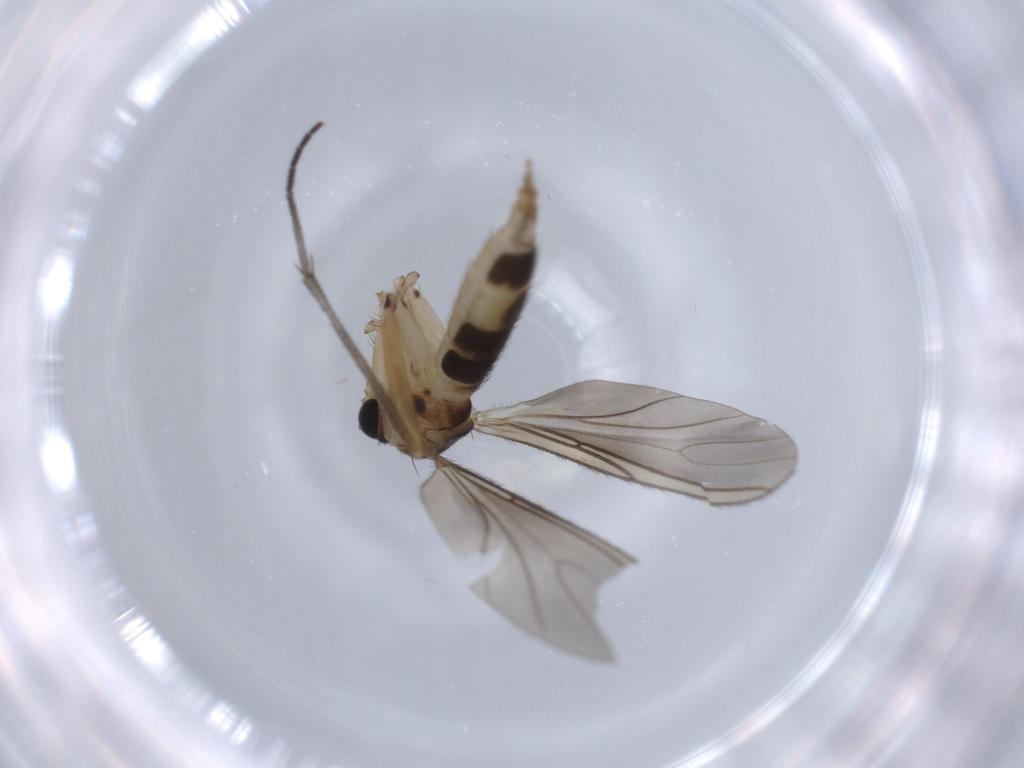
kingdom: Animalia
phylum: Arthropoda
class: Insecta
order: Diptera
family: Sciaridae
